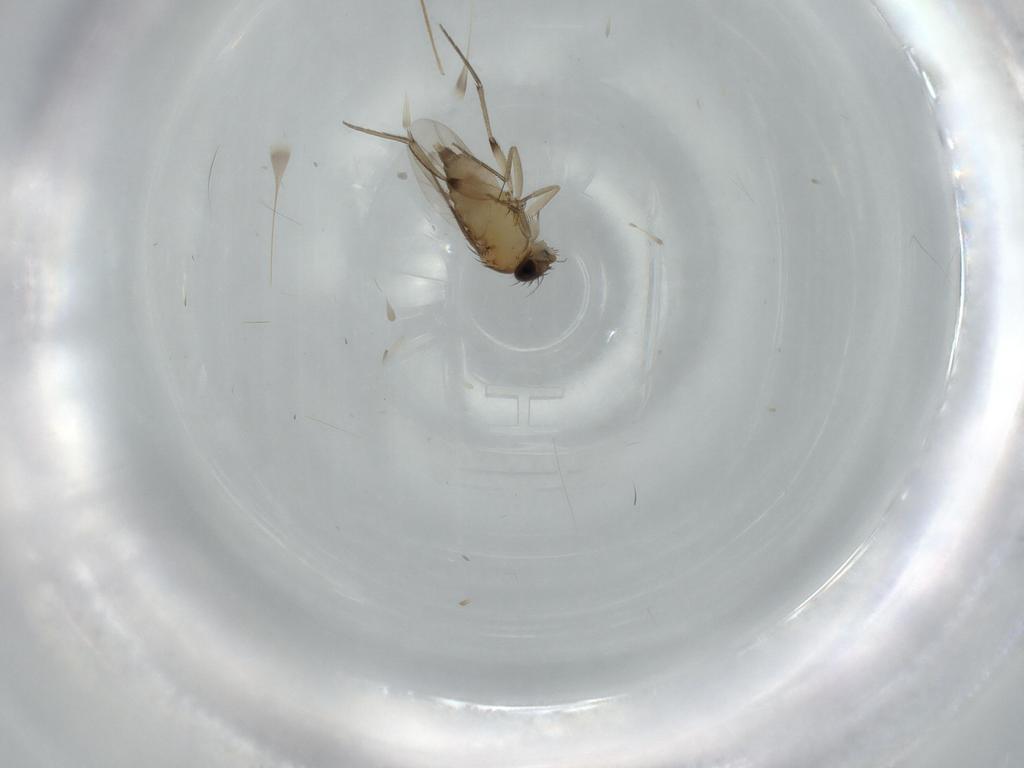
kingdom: Animalia
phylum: Arthropoda
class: Insecta
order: Diptera
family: Phoridae
